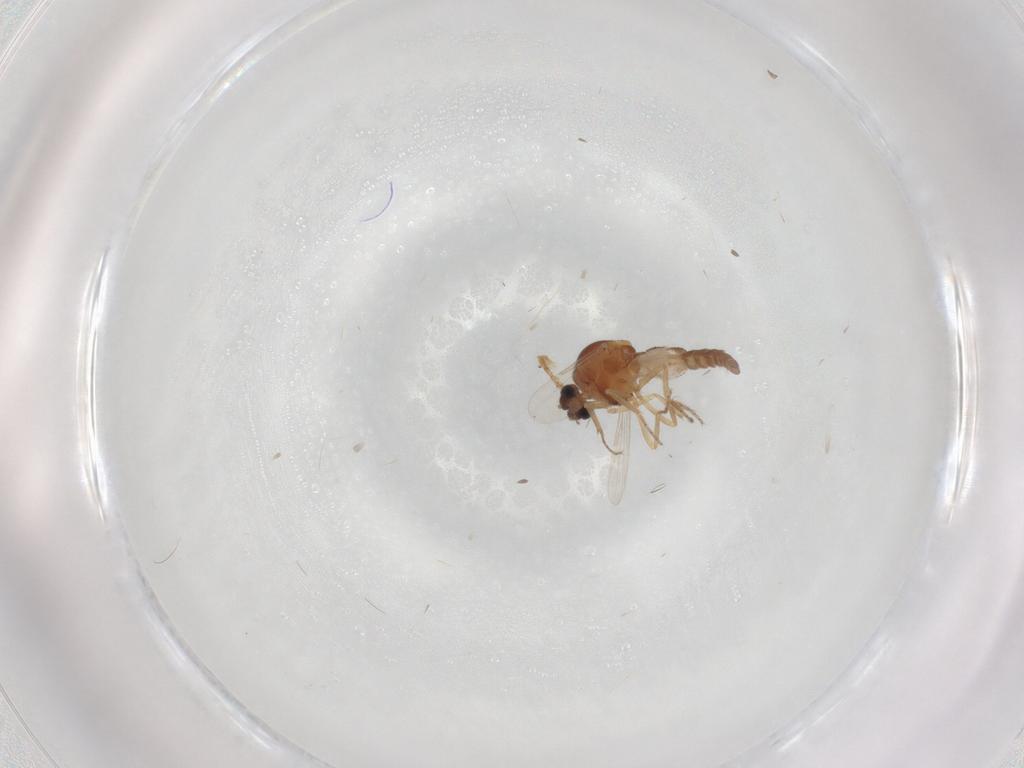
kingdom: Animalia
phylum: Arthropoda
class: Insecta
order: Diptera
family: Ceratopogonidae
